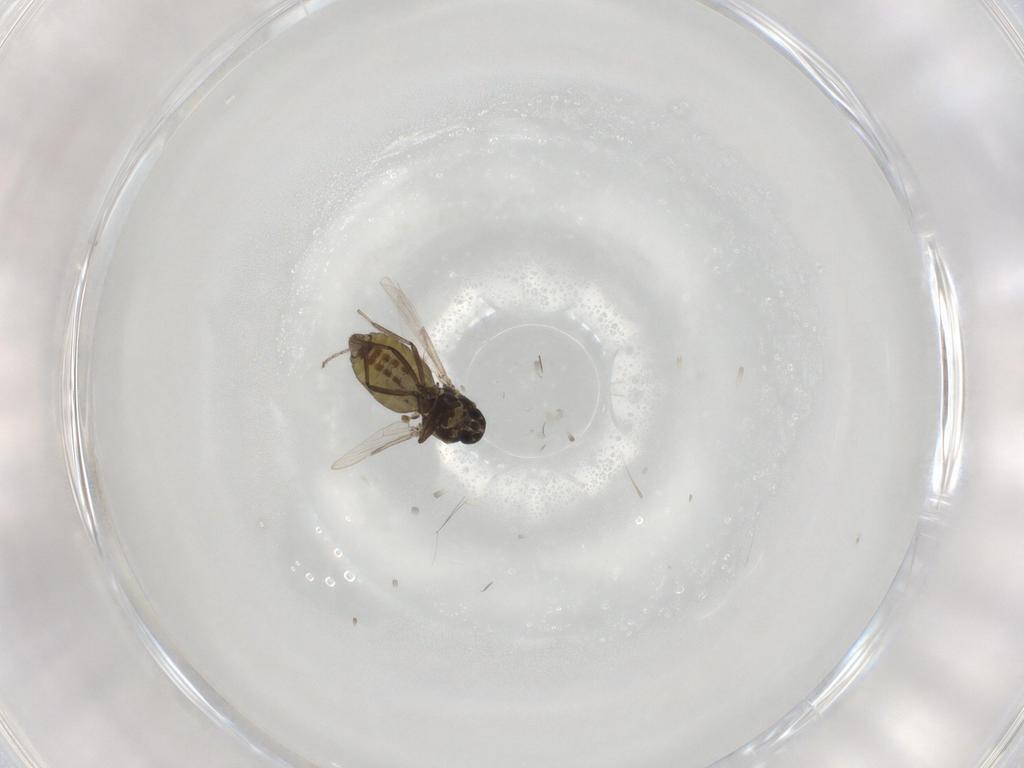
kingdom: Animalia
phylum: Arthropoda
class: Insecta
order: Diptera
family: Ceratopogonidae
